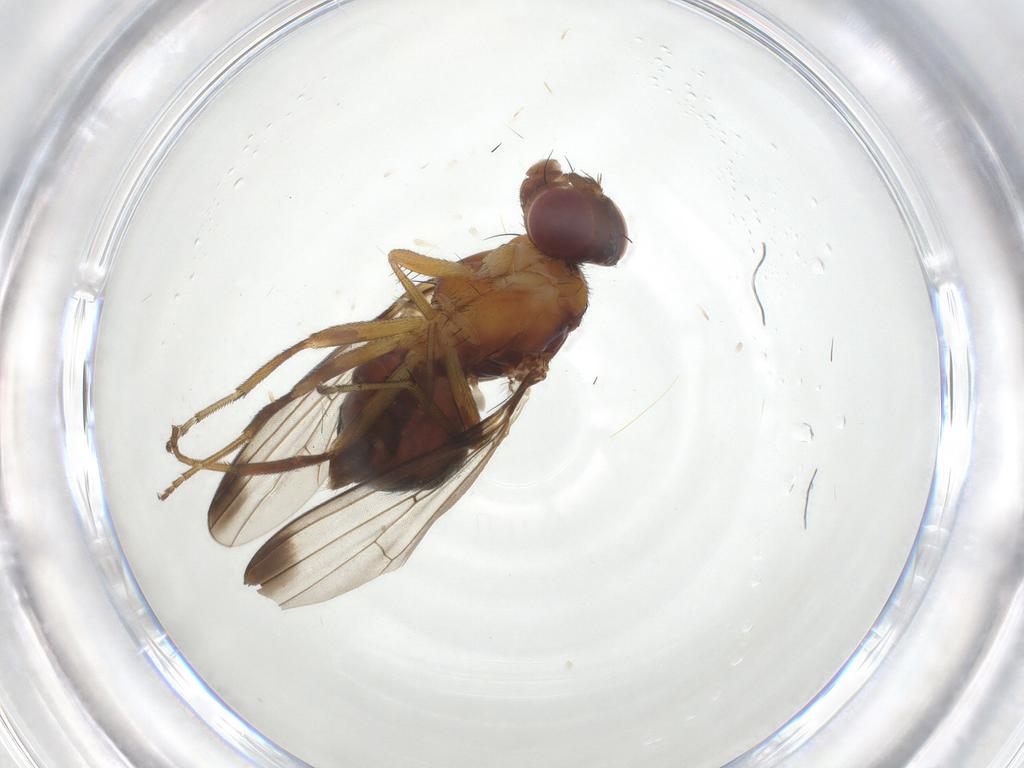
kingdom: Animalia
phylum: Arthropoda
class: Insecta
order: Diptera
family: Piophilidae
